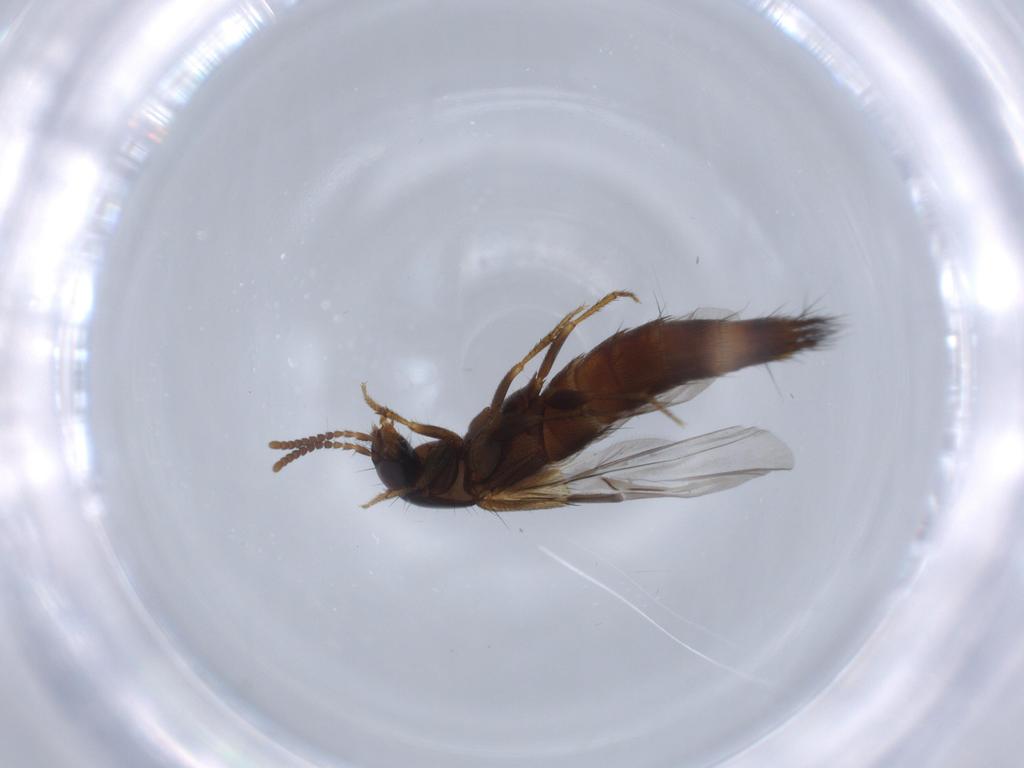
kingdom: Animalia
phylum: Arthropoda
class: Insecta
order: Coleoptera
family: Staphylinidae
